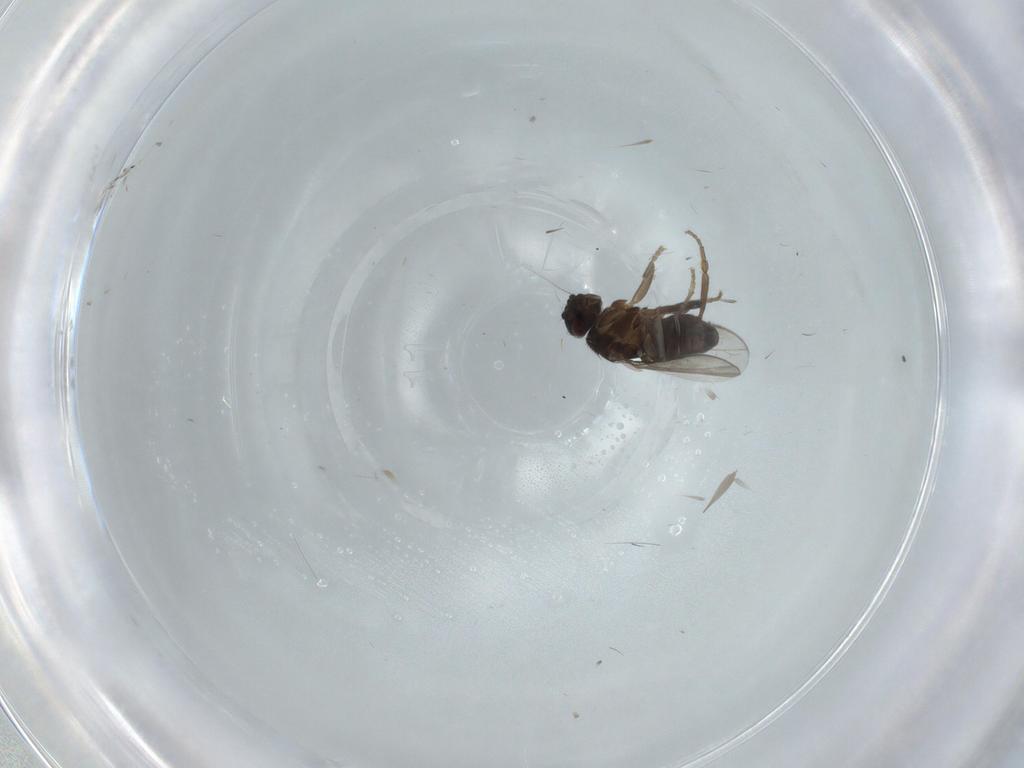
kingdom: Animalia
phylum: Arthropoda
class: Insecta
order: Diptera
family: Sphaeroceridae
